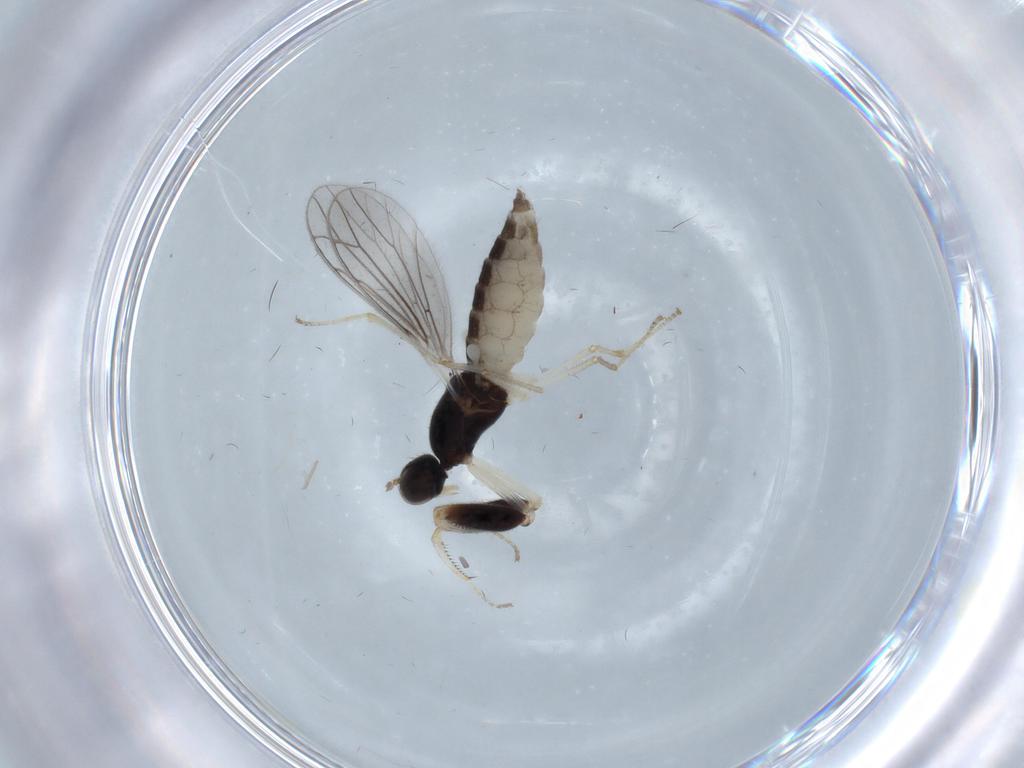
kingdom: Animalia
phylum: Arthropoda
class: Insecta
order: Diptera
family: Empididae
